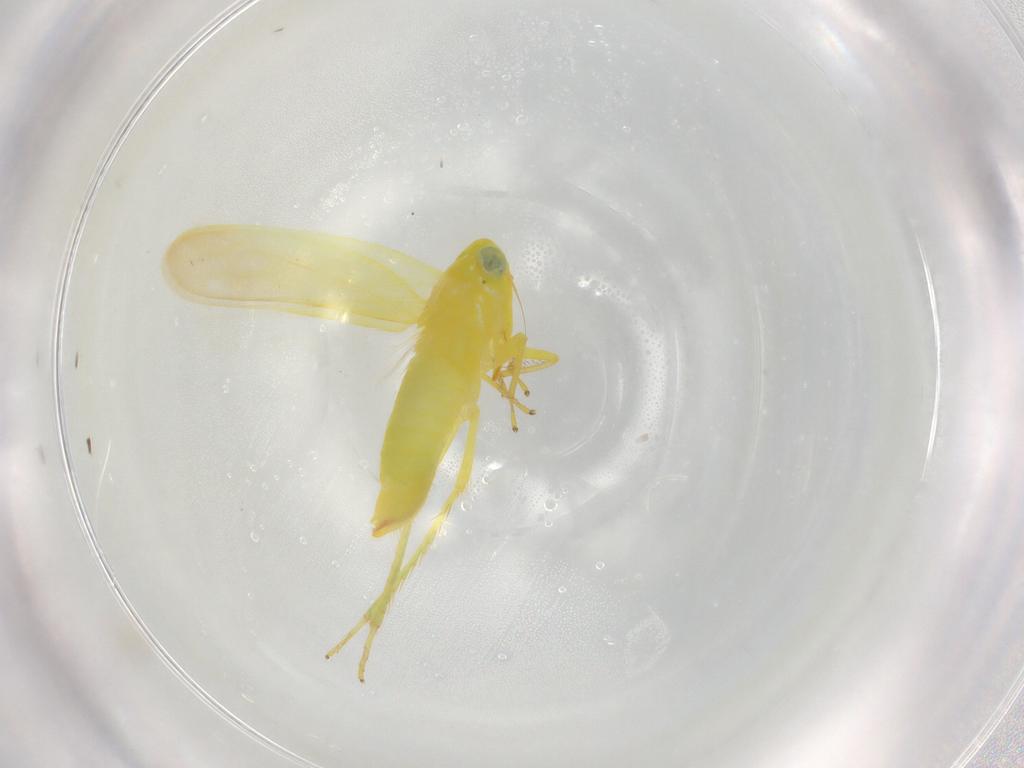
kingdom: Animalia
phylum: Arthropoda
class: Insecta
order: Hemiptera
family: Cicadellidae
